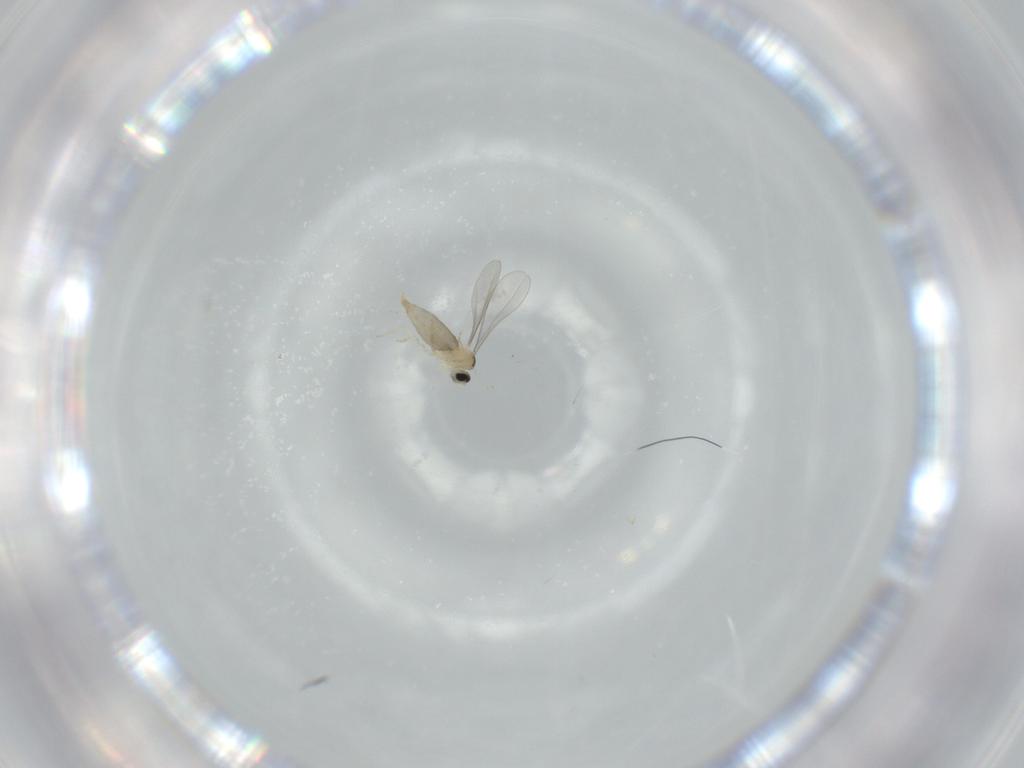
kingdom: Animalia
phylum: Arthropoda
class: Insecta
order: Diptera
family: Cecidomyiidae
